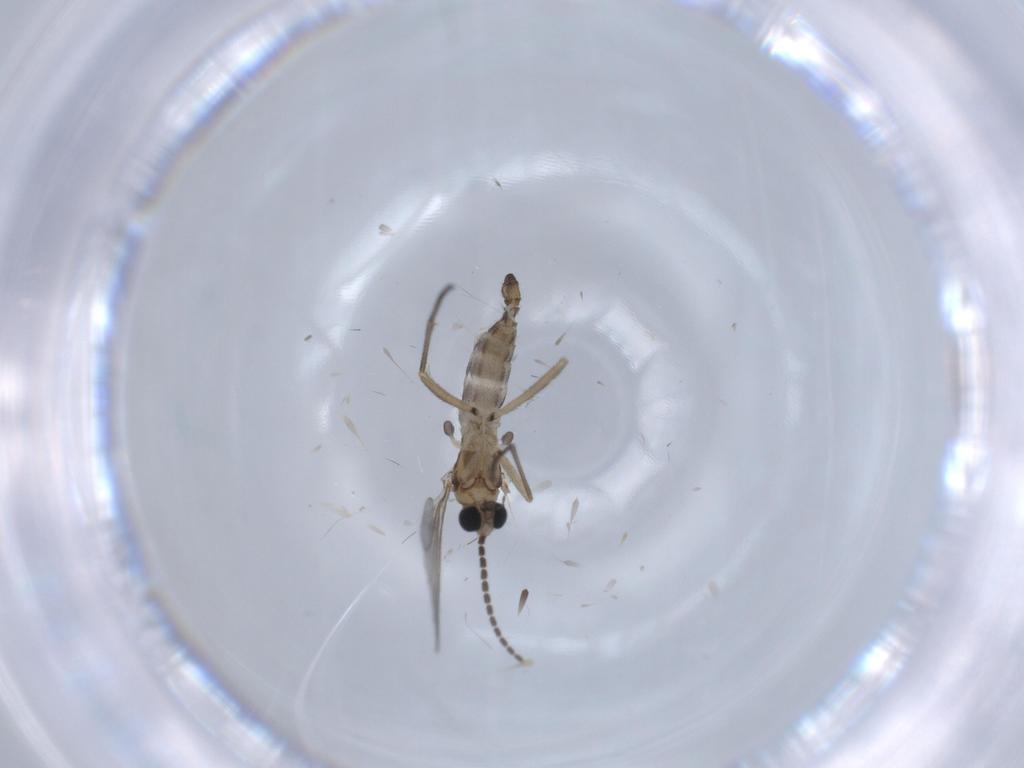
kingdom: Animalia
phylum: Arthropoda
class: Insecta
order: Diptera
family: Sciaridae
